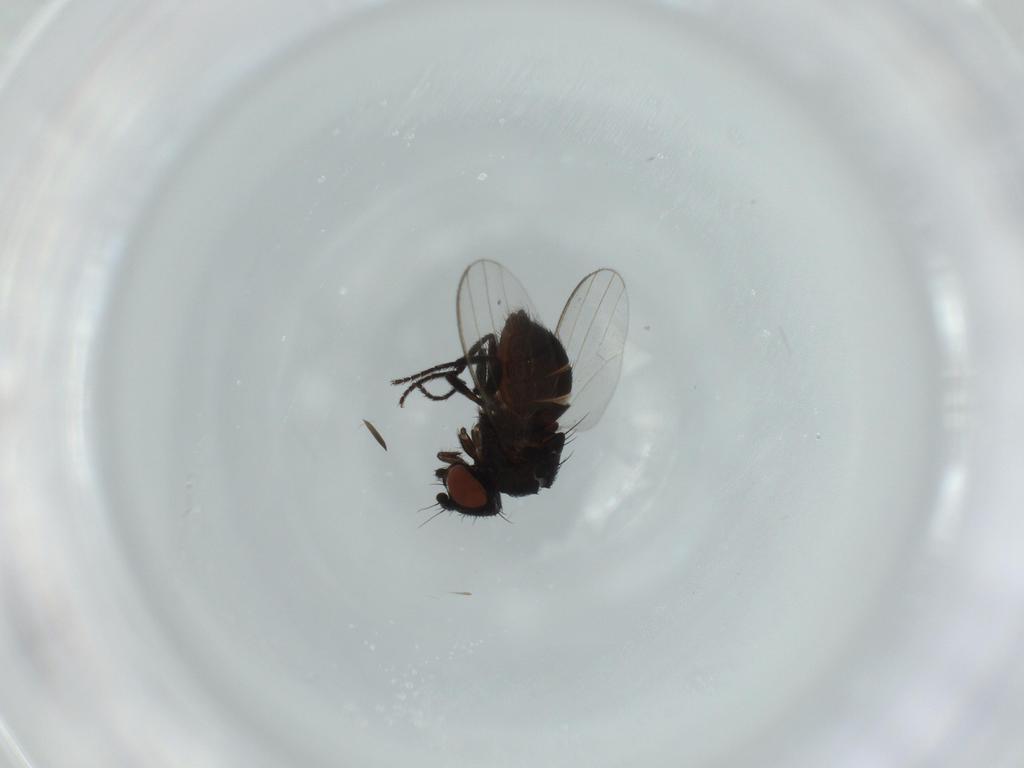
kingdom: Animalia
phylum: Arthropoda
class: Insecta
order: Diptera
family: Milichiidae
